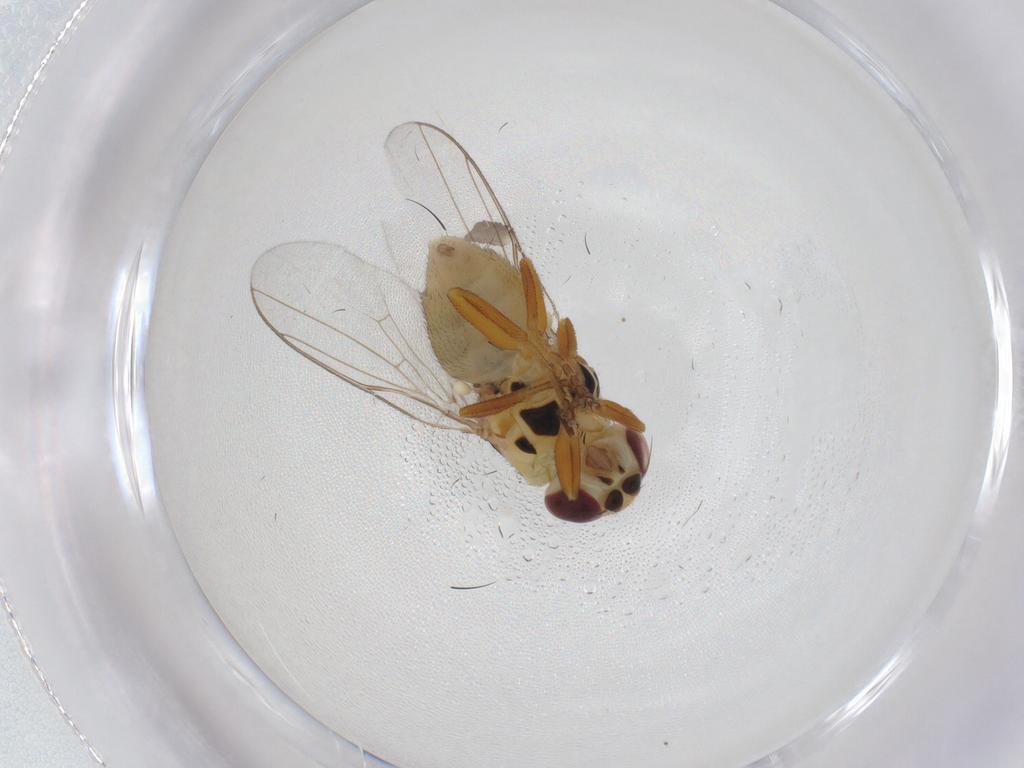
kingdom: Animalia
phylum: Arthropoda
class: Insecta
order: Diptera
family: Chloropidae
